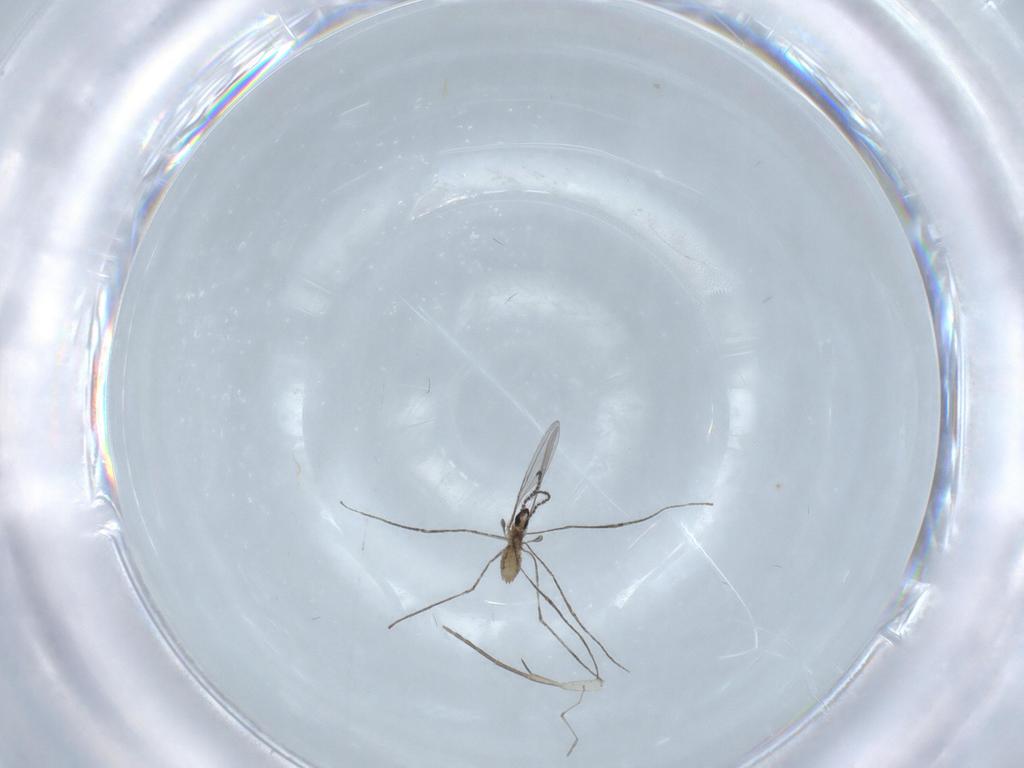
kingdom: Animalia
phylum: Arthropoda
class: Insecta
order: Diptera
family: Cecidomyiidae
